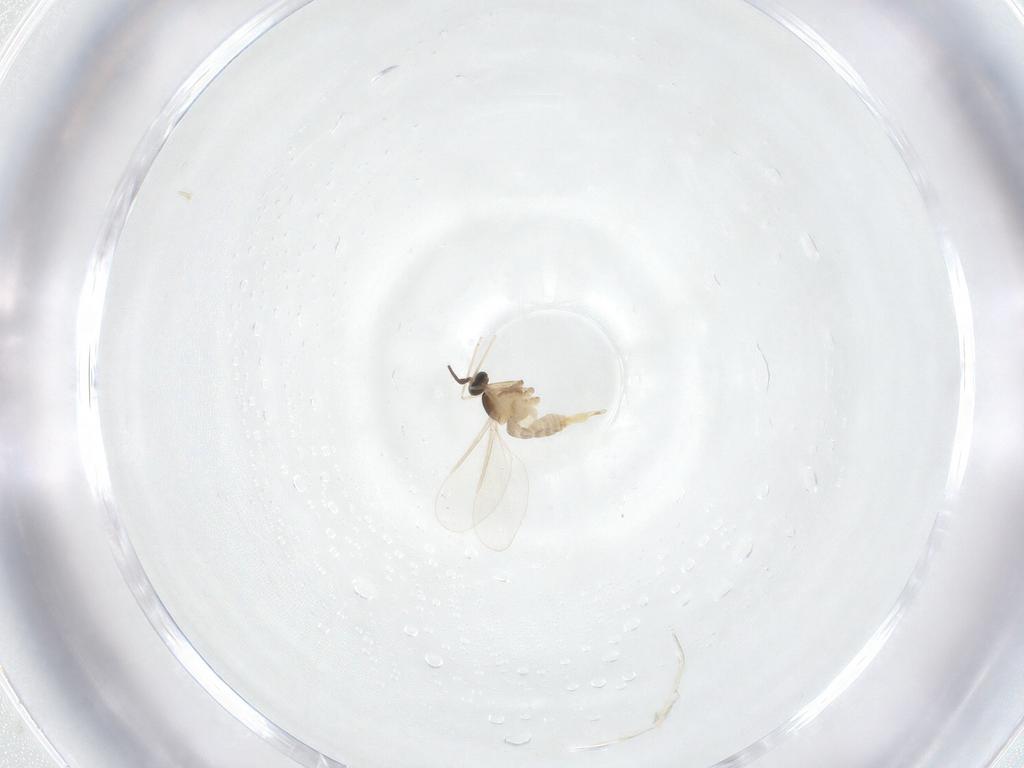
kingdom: Animalia
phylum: Arthropoda
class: Insecta
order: Diptera
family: Cecidomyiidae
